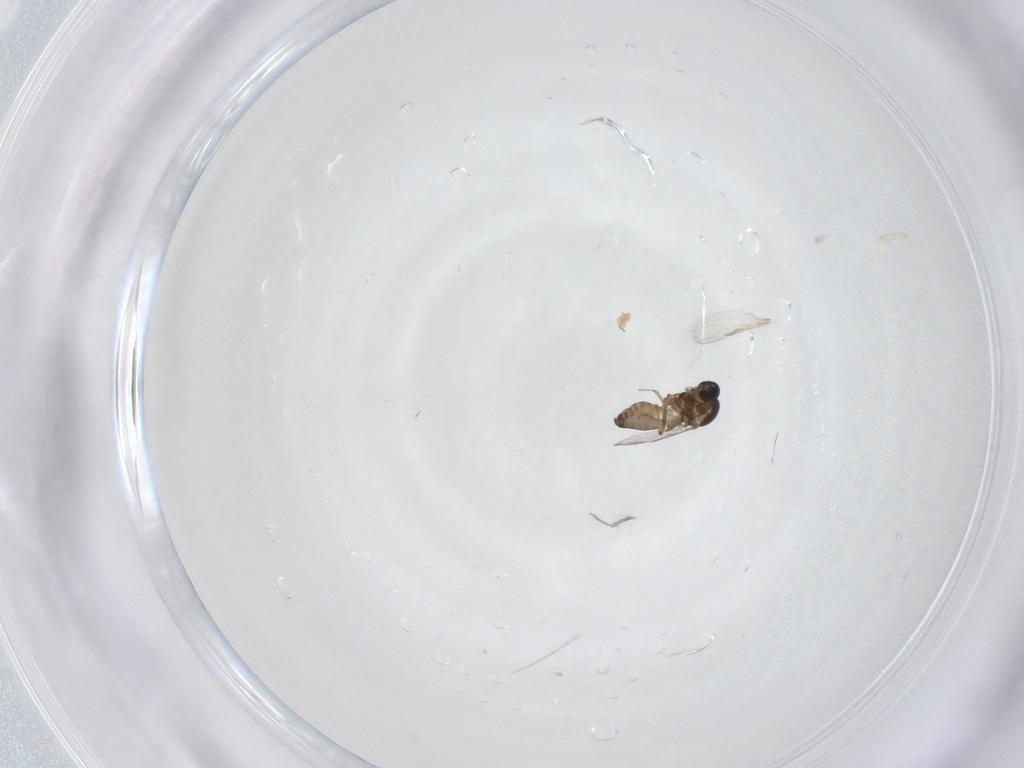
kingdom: Animalia
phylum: Arthropoda
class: Insecta
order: Diptera
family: Ceratopogonidae
